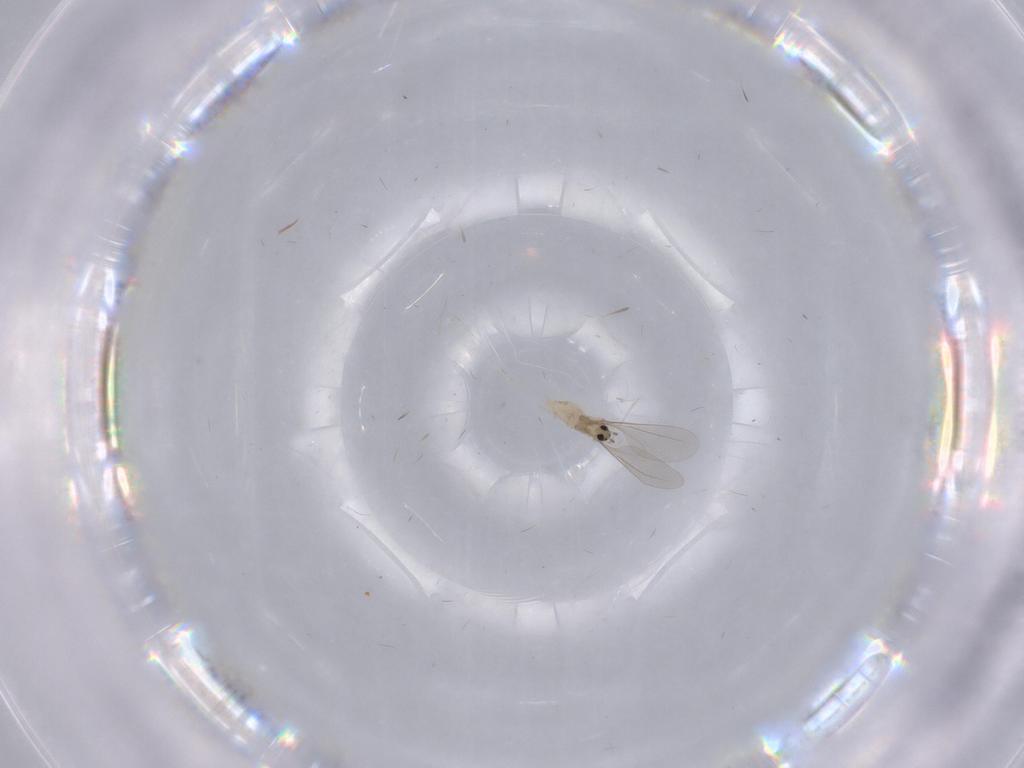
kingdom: Animalia
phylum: Arthropoda
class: Insecta
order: Diptera
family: Cecidomyiidae
